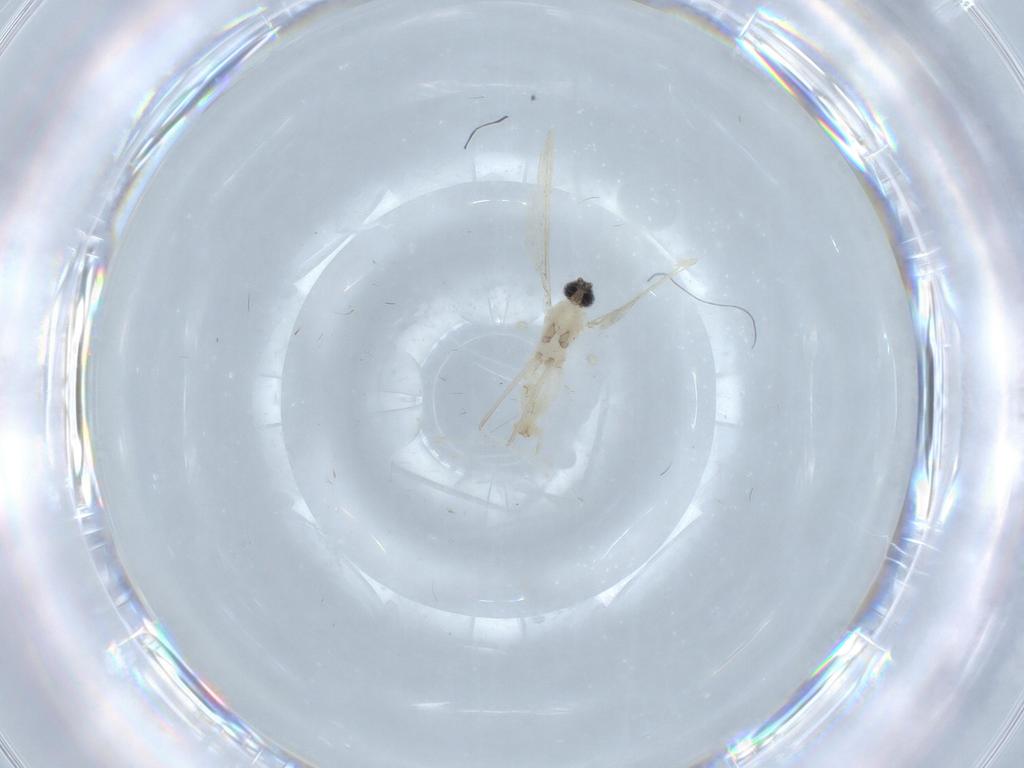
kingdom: Animalia
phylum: Arthropoda
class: Insecta
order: Diptera
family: Cecidomyiidae
